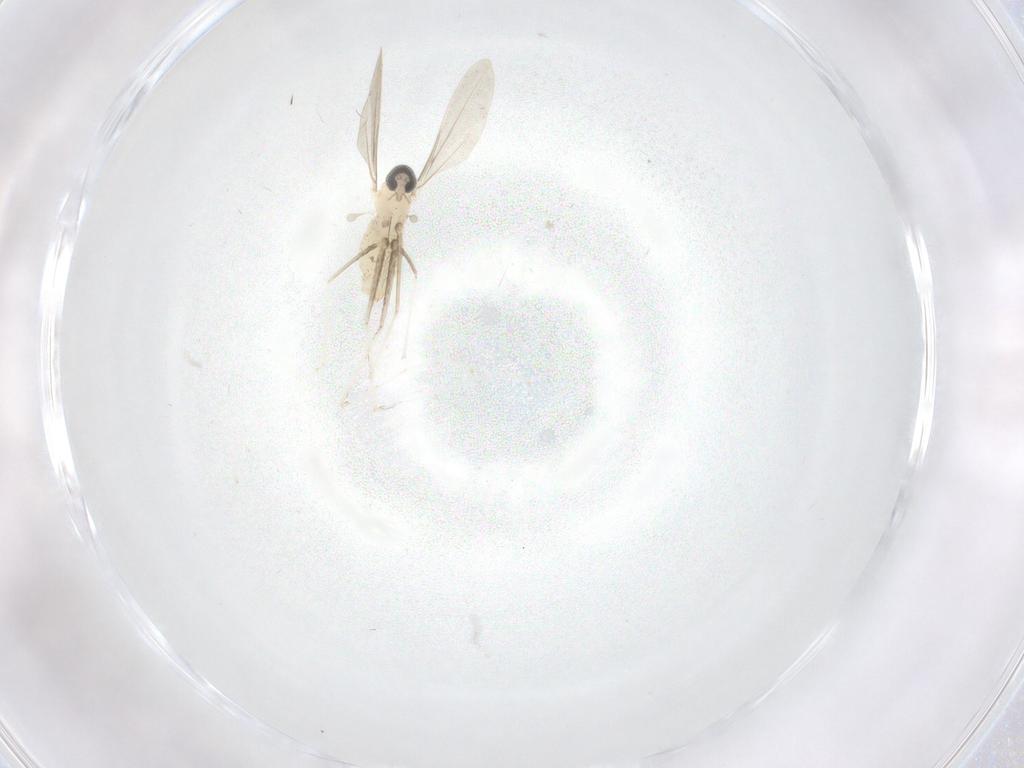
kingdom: Animalia
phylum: Arthropoda
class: Insecta
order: Diptera
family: Cecidomyiidae
